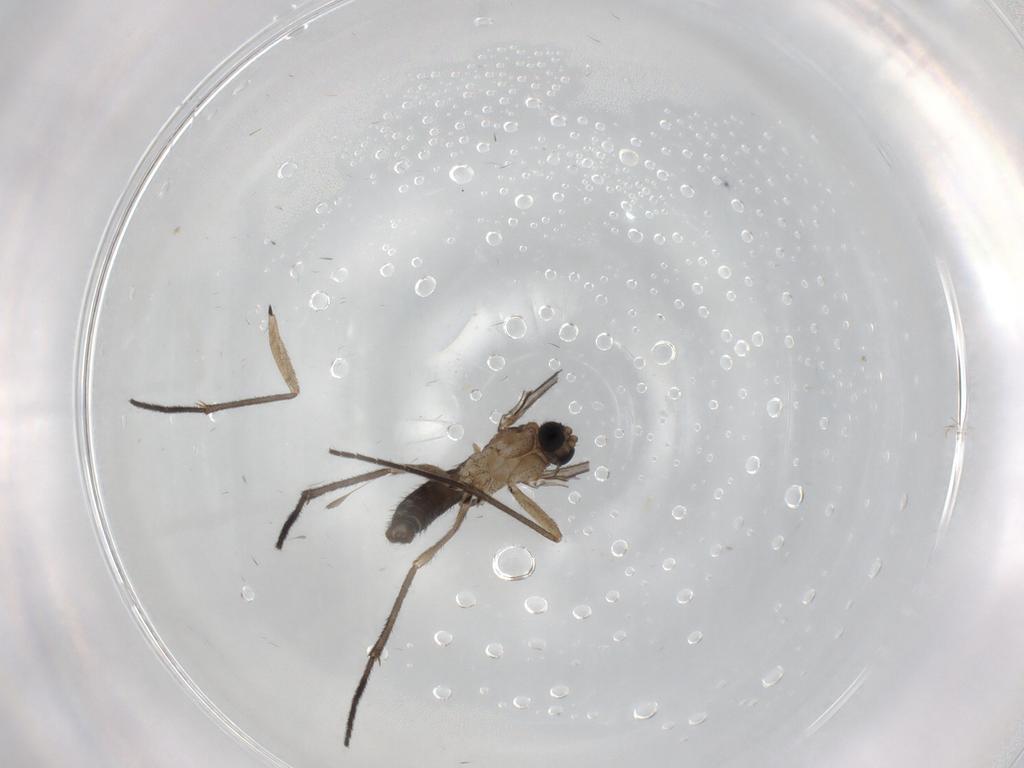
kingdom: Animalia
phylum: Arthropoda
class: Insecta
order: Diptera
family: Sciaridae
